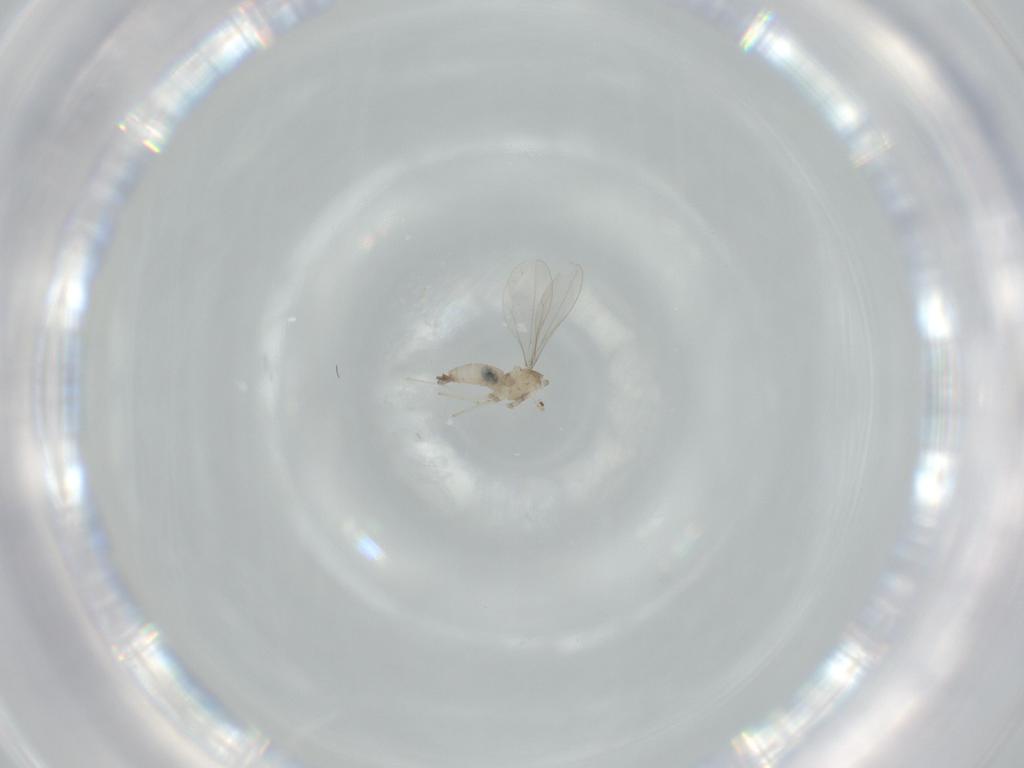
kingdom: Animalia
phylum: Arthropoda
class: Insecta
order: Diptera
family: Cecidomyiidae
